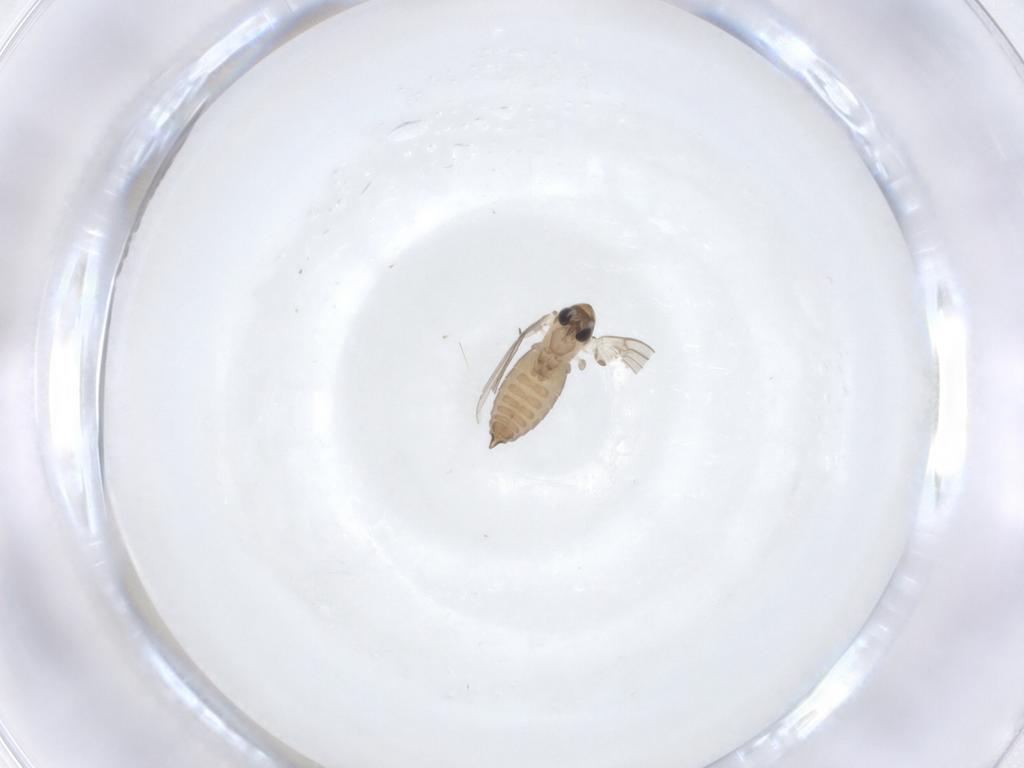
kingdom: Animalia
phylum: Arthropoda
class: Insecta
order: Diptera
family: Psychodidae
